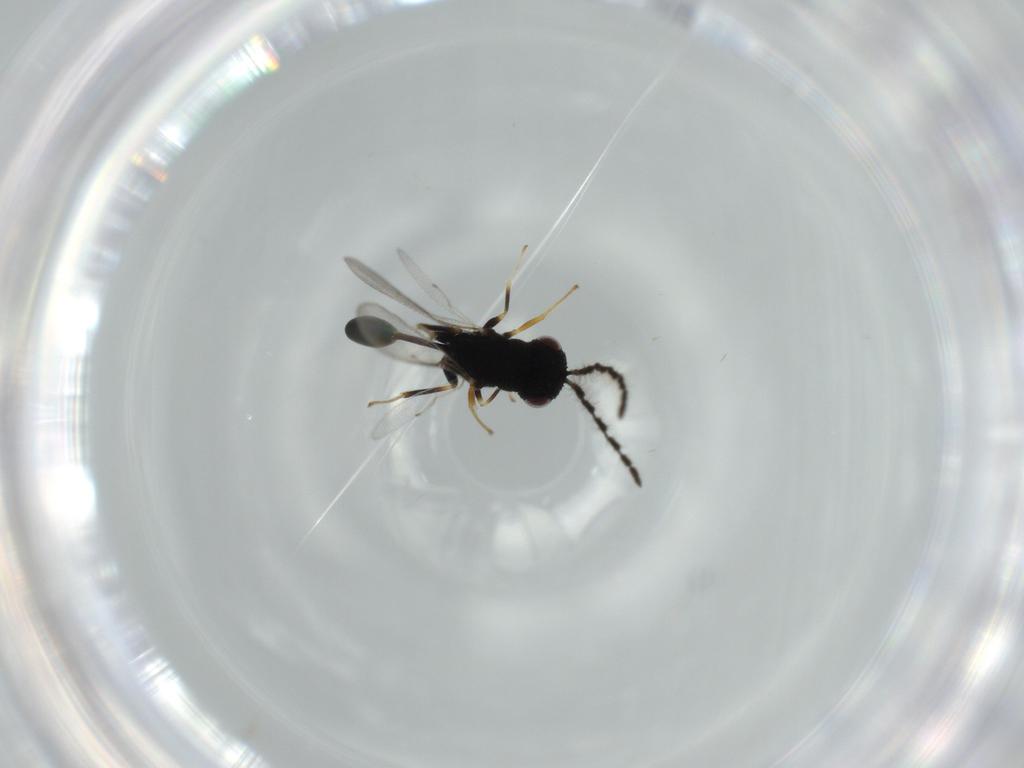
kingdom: Animalia
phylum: Arthropoda
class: Insecta
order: Hymenoptera
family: Eurytomidae
